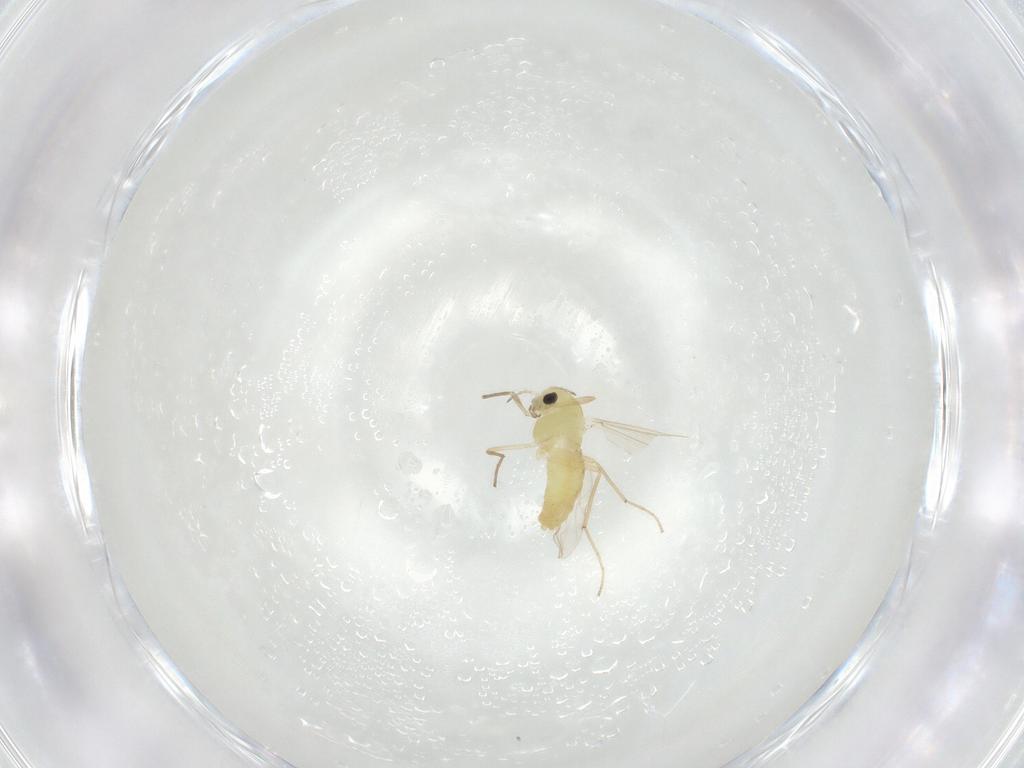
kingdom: Animalia
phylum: Arthropoda
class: Insecta
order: Diptera
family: Chironomidae
